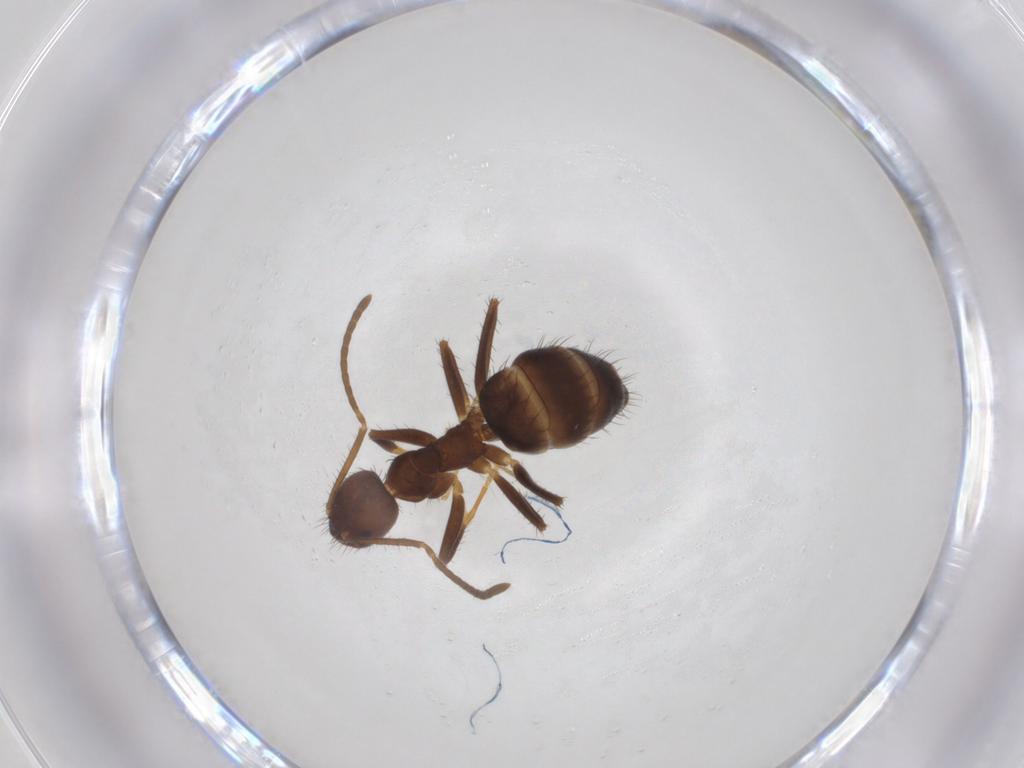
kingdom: Animalia
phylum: Arthropoda
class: Insecta
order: Hymenoptera
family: Formicidae
